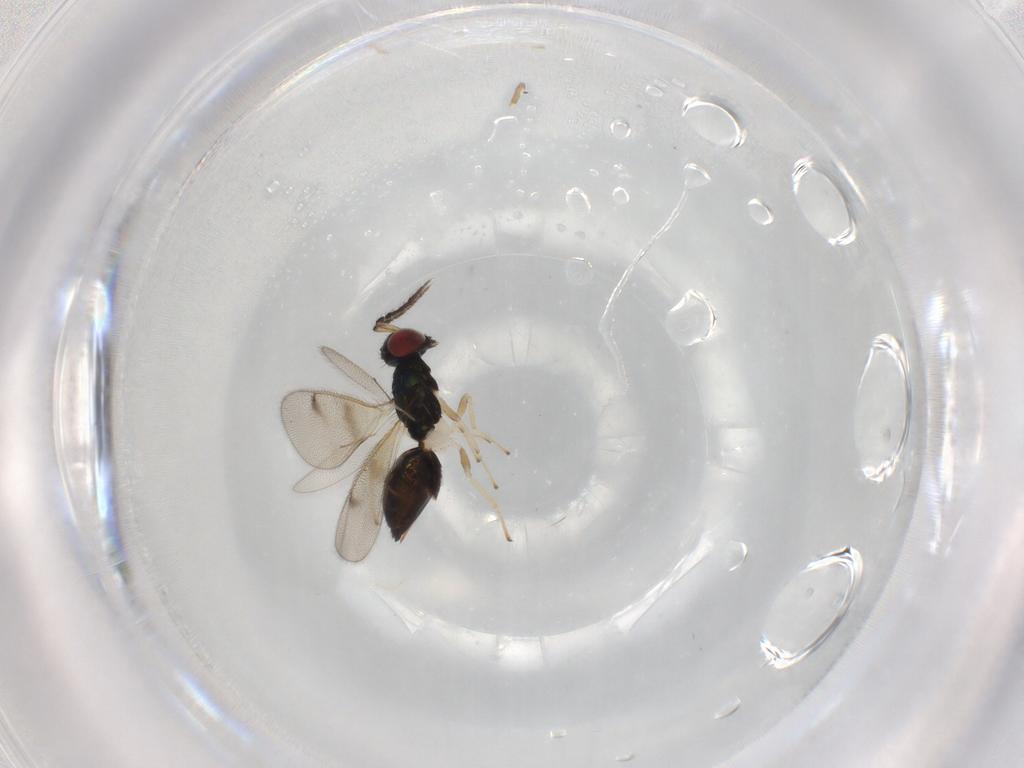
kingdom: Animalia
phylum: Arthropoda
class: Insecta
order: Hymenoptera
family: Eulophidae
